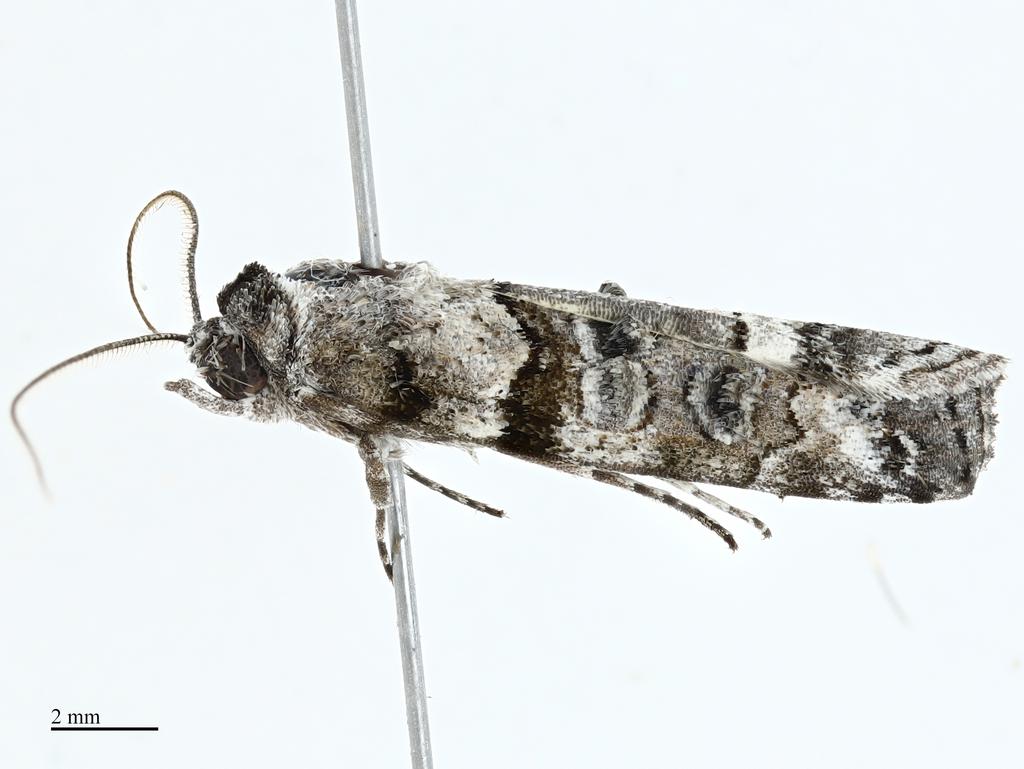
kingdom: Animalia
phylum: Arthropoda
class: Insecta
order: Lepidoptera
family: Nolidae
